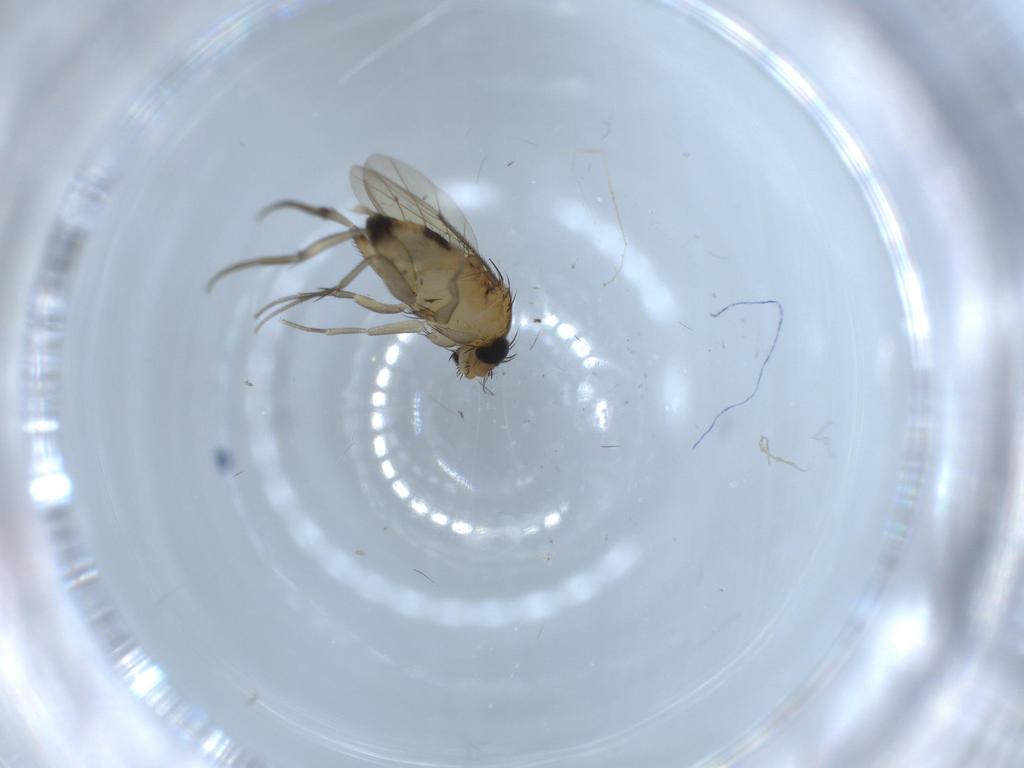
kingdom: Animalia
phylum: Arthropoda
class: Insecta
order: Diptera
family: Phoridae
